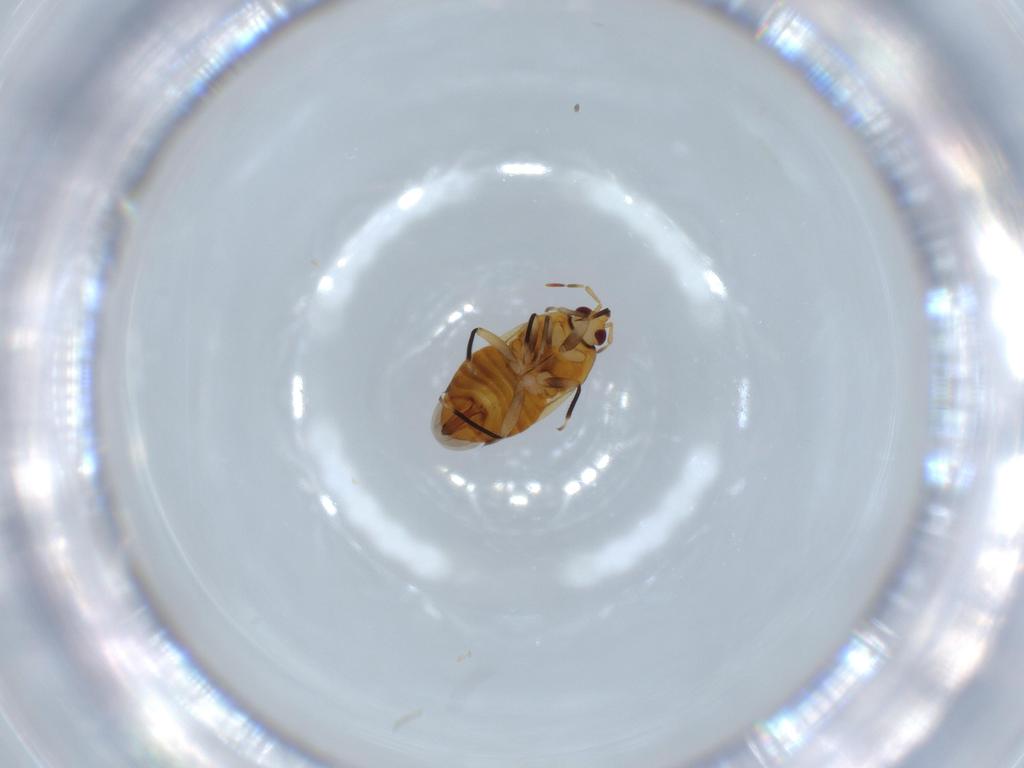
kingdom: Animalia
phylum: Arthropoda
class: Insecta
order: Hemiptera
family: Anthocoridae
